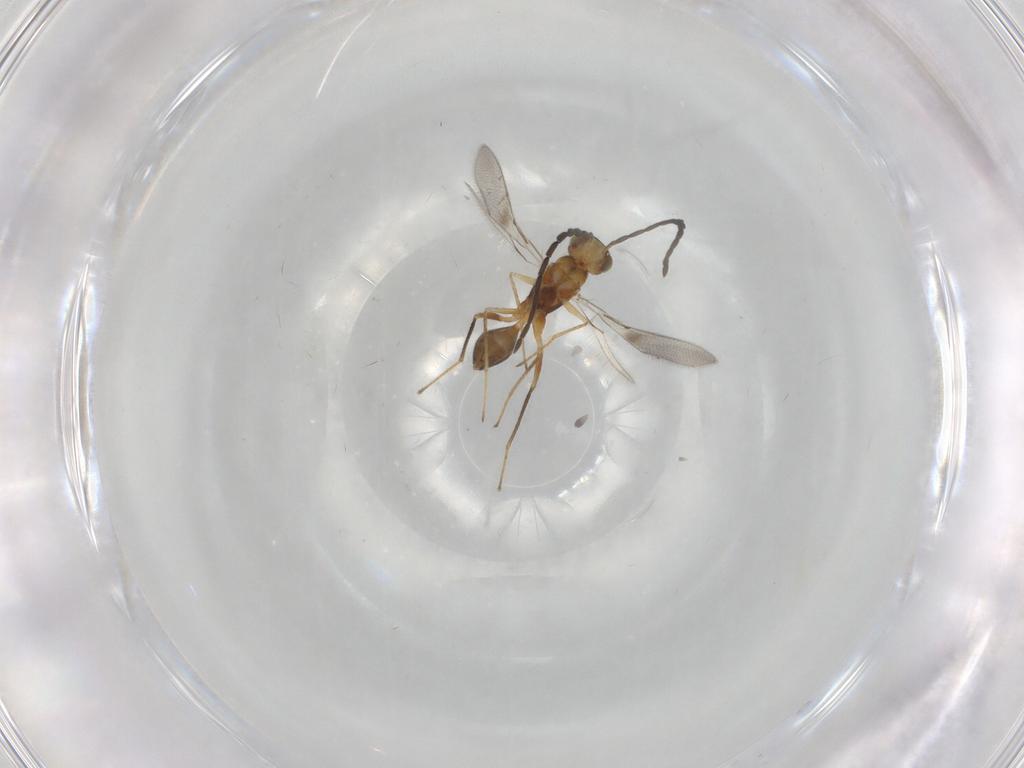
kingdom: Animalia
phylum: Arthropoda
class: Insecta
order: Hymenoptera
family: Mymaridae
